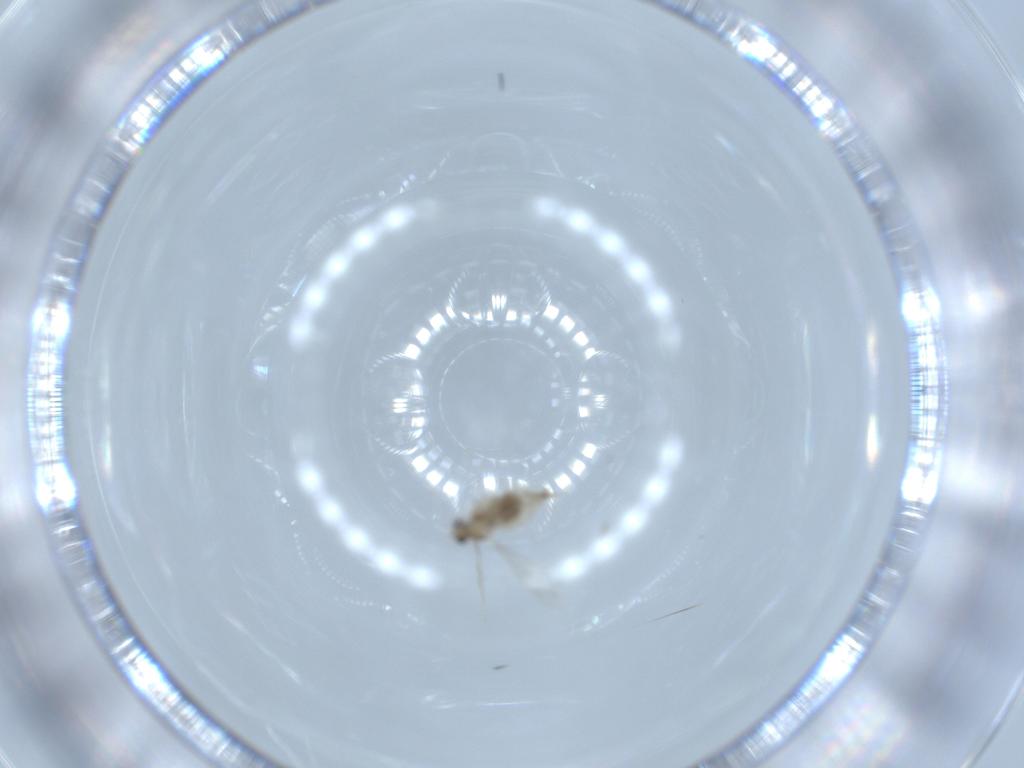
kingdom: Animalia
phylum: Arthropoda
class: Insecta
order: Diptera
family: Cecidomyiidae
